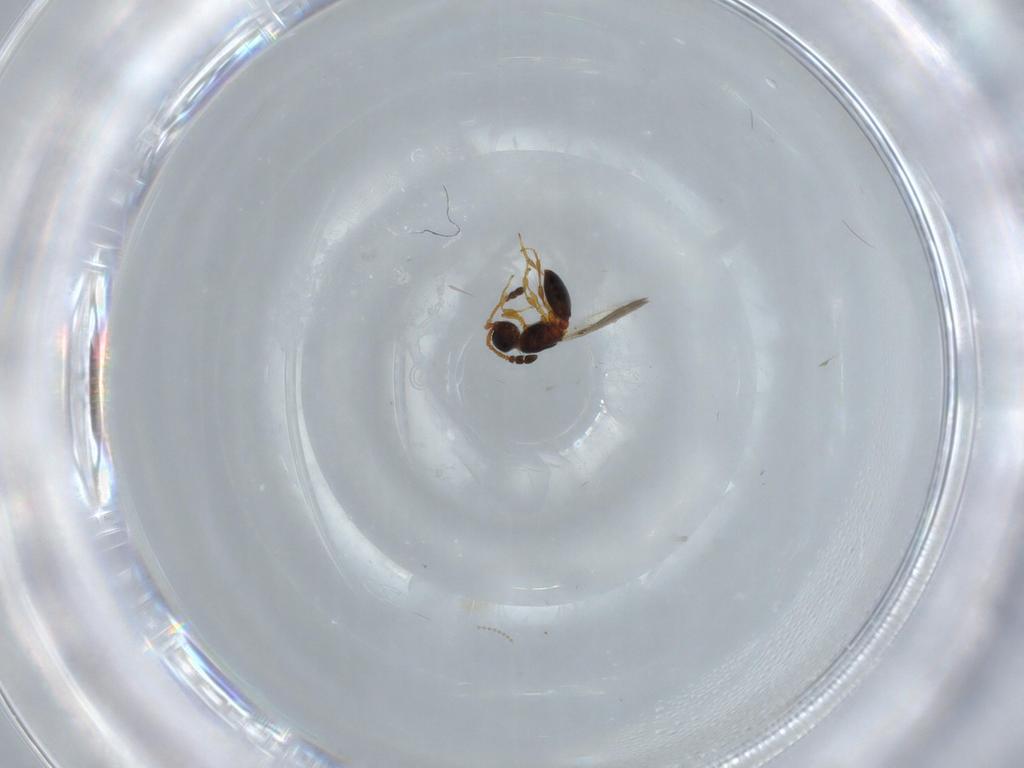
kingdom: Animalia
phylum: Arthropoda
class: Insecta
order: Hymenoptera
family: Diapriidae
